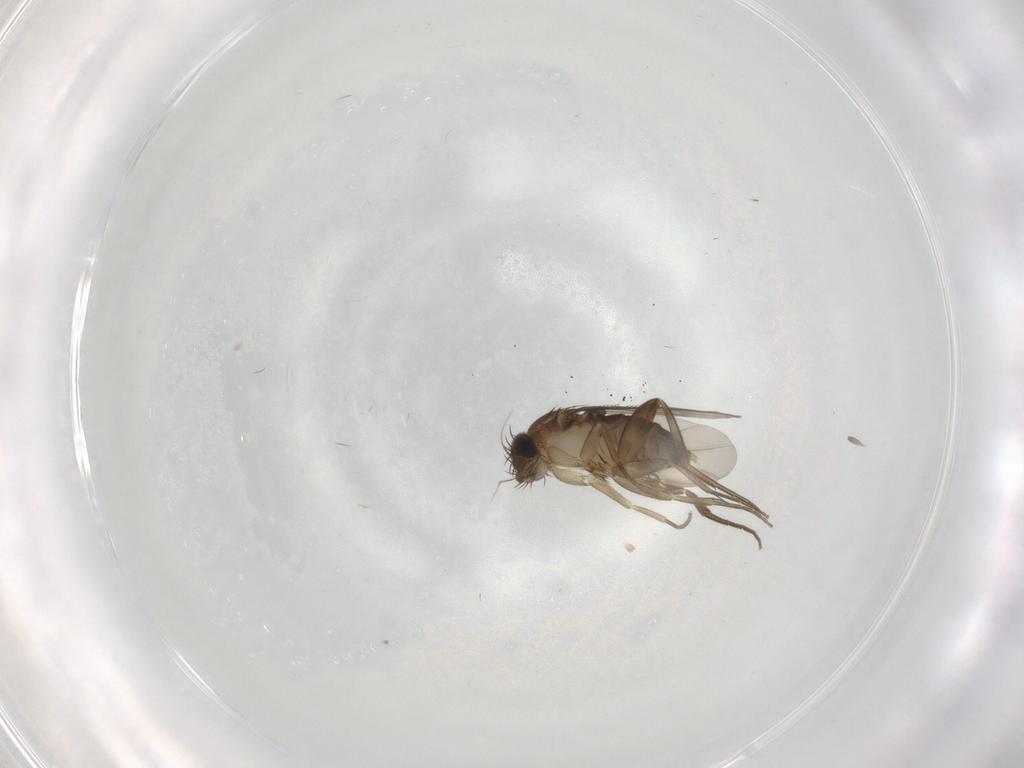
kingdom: Animalia
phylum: Arthropoda
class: Insecta
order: Diptera
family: Phoridae
